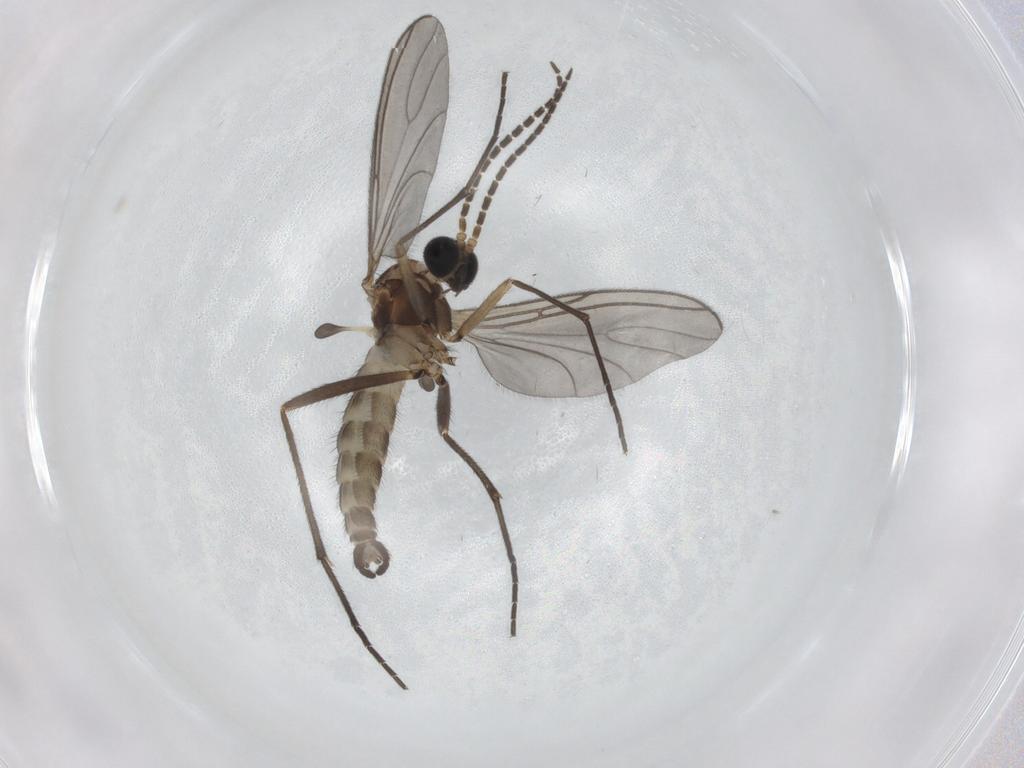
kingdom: Animalia
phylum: Arthropoda
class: Insecta
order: Diptera
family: Sciaridae
